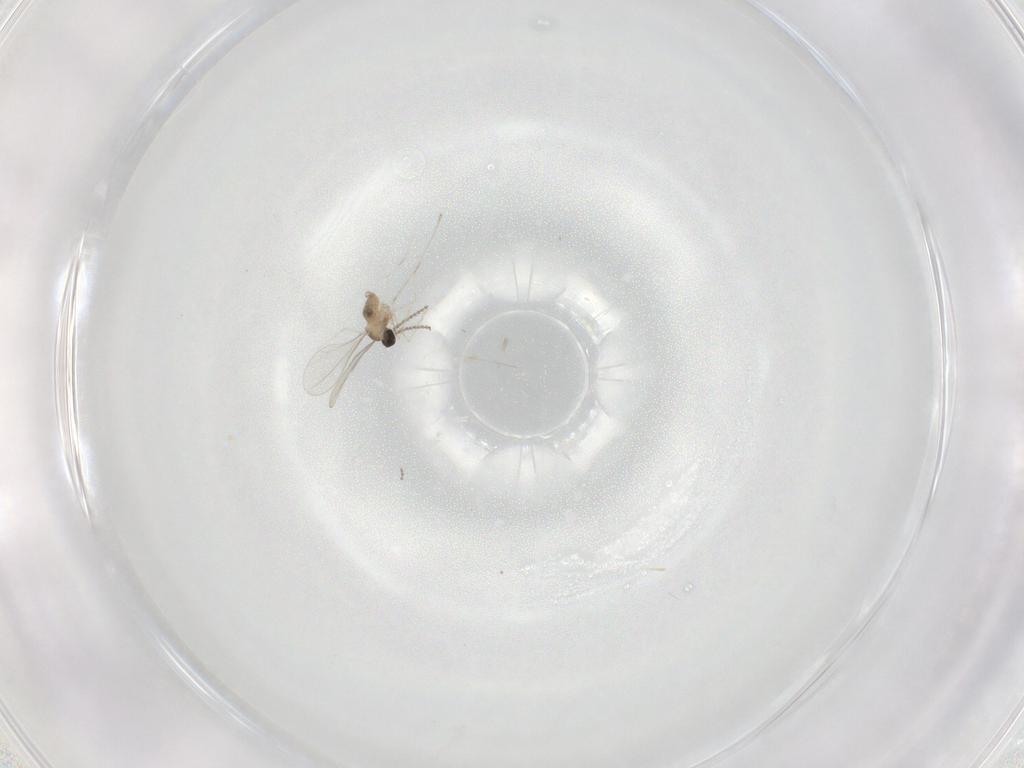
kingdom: Animalia
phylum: Arthropoda
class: Insecta
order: Diptera
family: Cecidomyiidae
